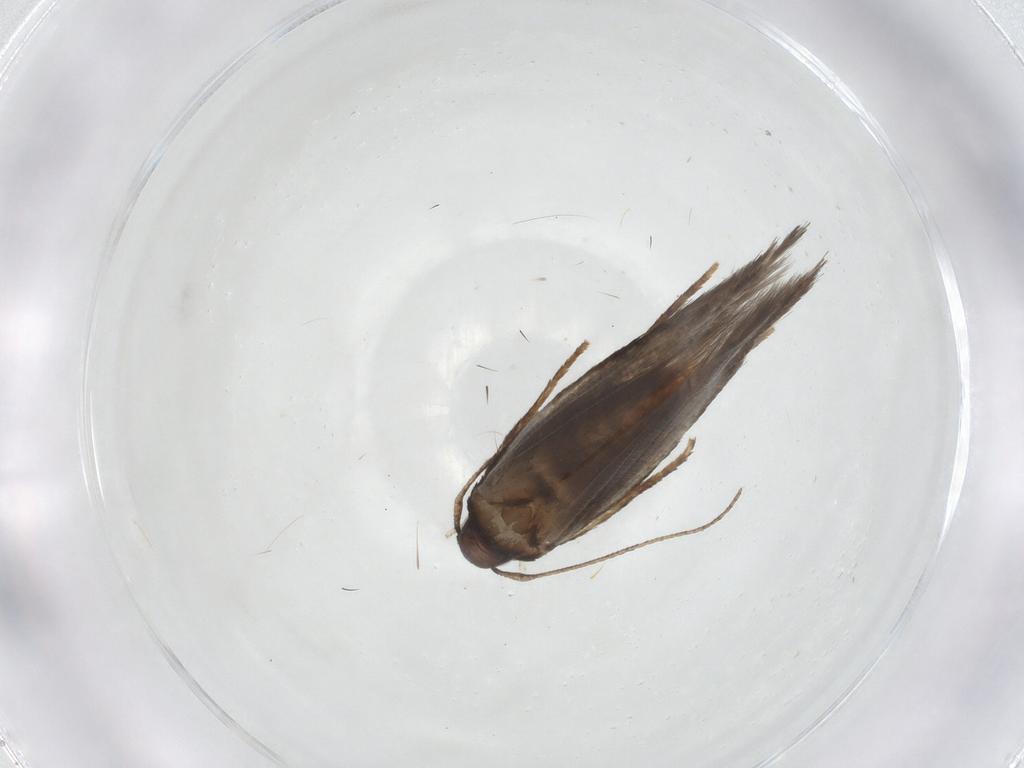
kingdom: Animalia
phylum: Arthropoda
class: Insecta
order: Lepidoptera
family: Gelechiidae
